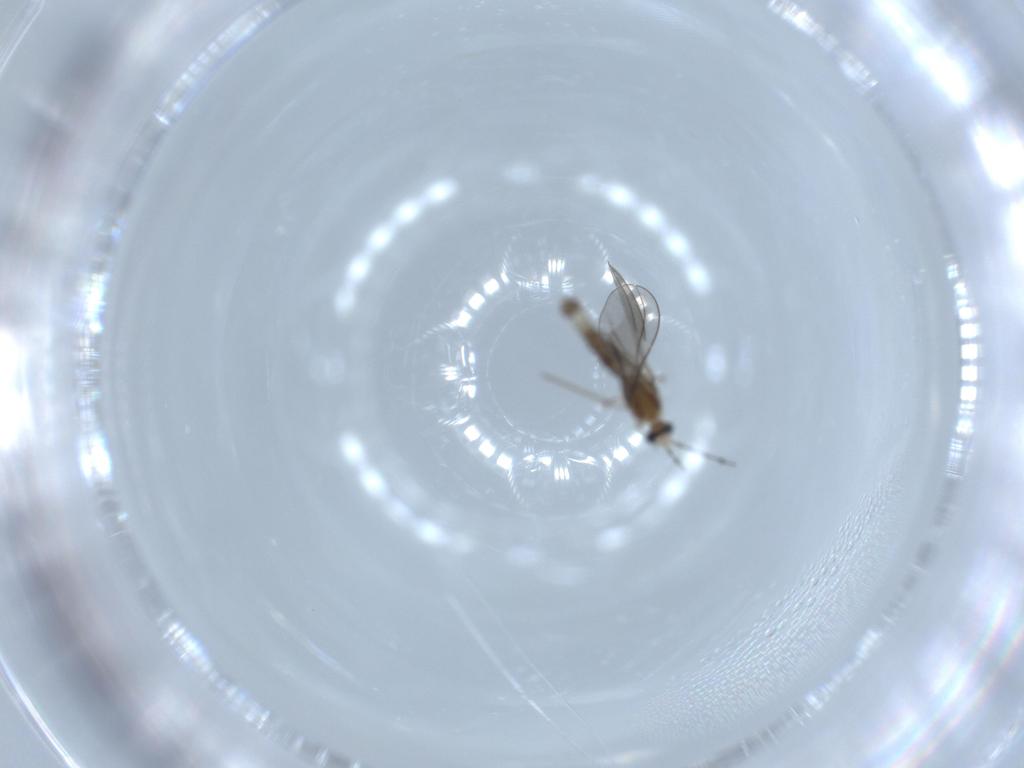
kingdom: Animalia
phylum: Arthropoda
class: Insecta
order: Diptera
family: Cecidomyiidae
